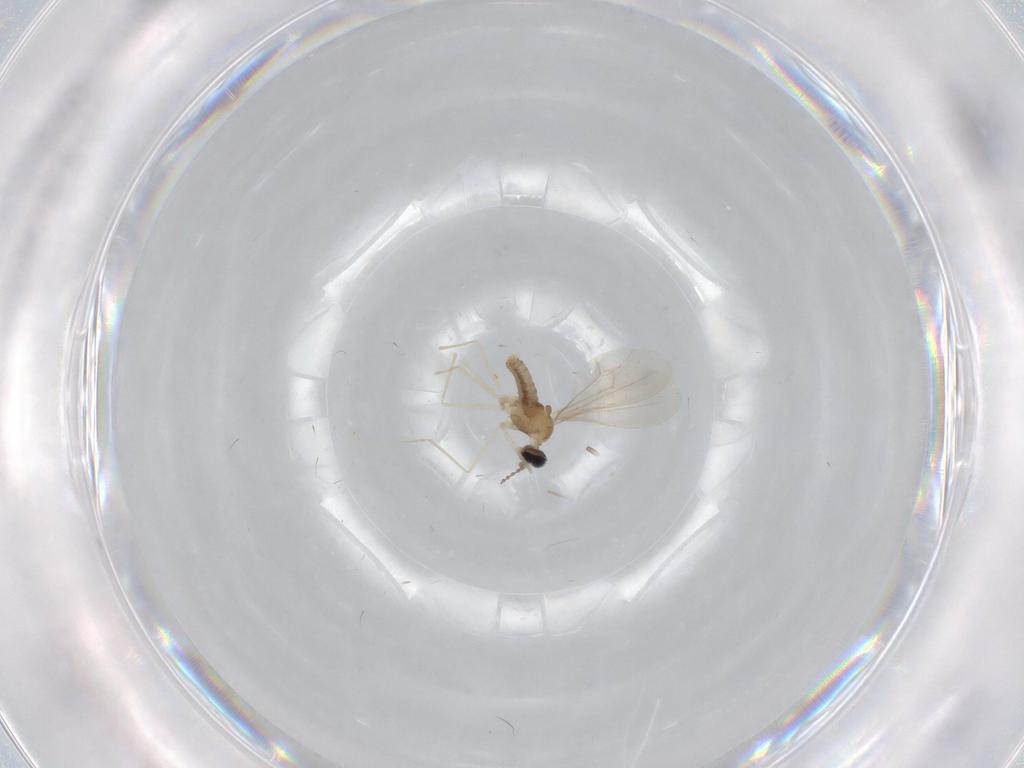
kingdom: Animalia
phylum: Arthropoda
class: Insecta
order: Diptera
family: Cecidomyiidae
